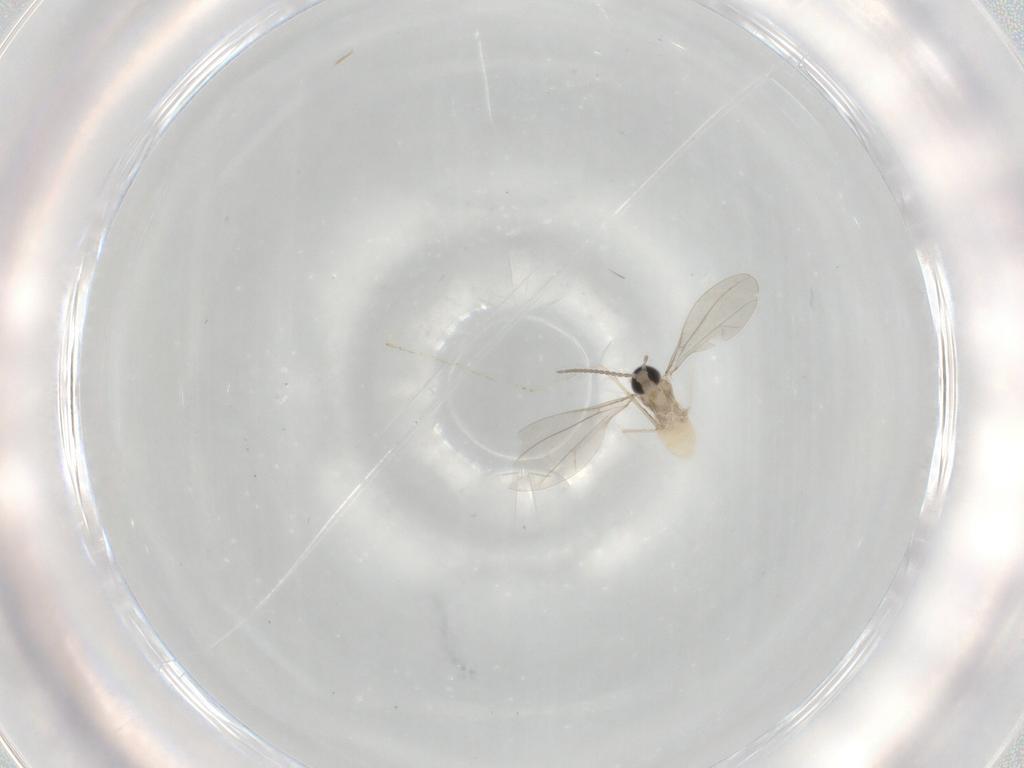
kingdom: Animalia
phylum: Arthropoda
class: Insecta
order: Diptera
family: Cecidomyiidae
